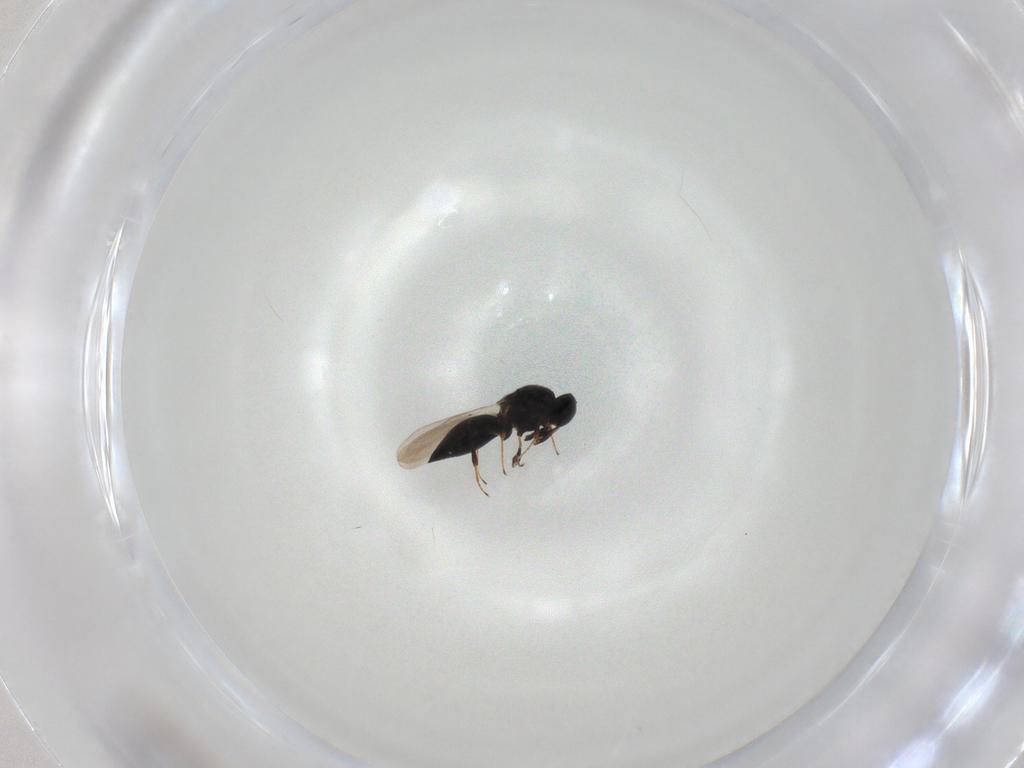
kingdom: Animalia
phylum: Arthropoda
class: Insecta
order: Hymenoptera
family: Platygastridae
